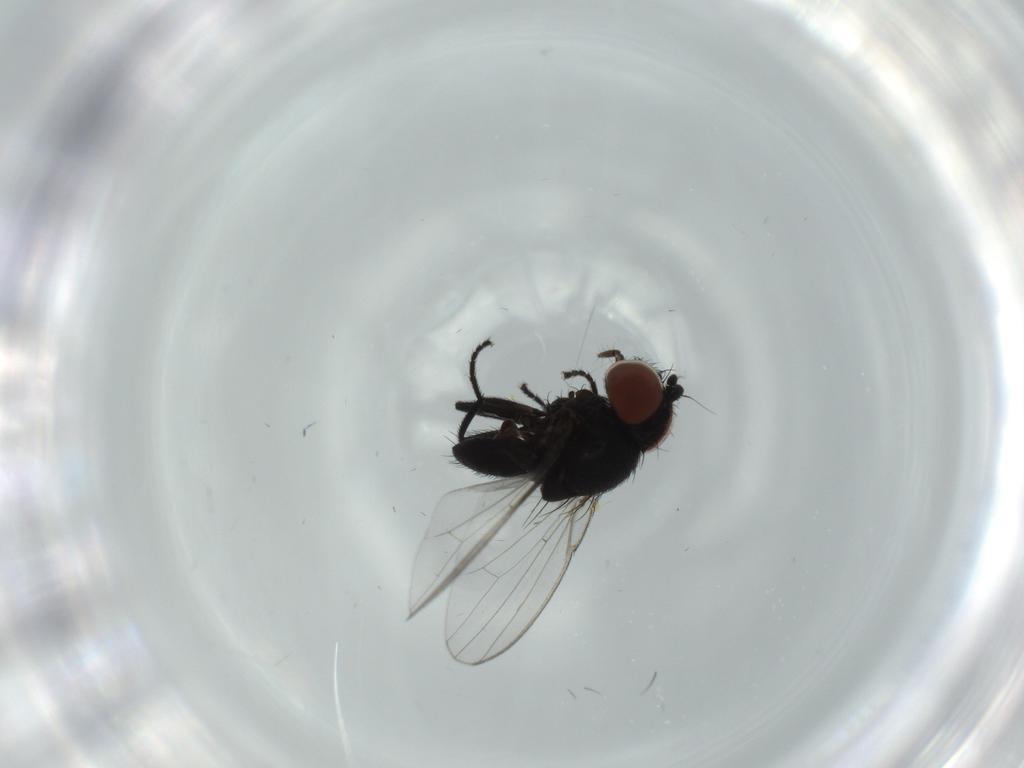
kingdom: Animalia
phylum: Arthropoda
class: Insecta
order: Diptera
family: Milichiidae
